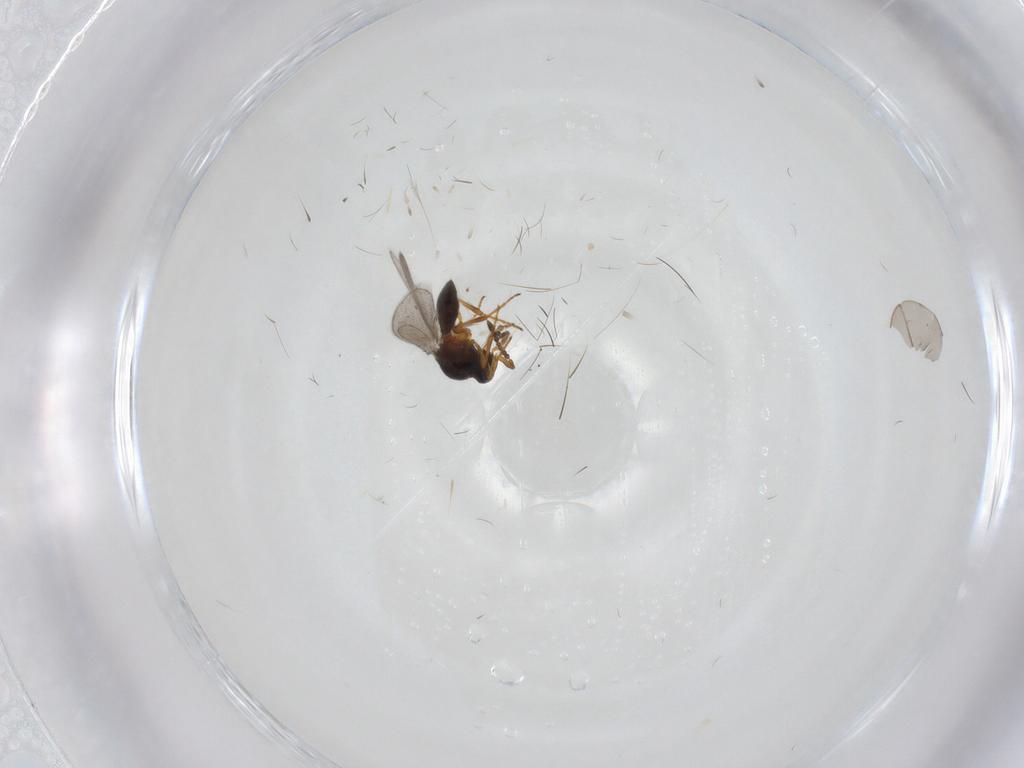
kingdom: Animalia
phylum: Arthropoda
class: Insecta
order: Hymenoptera
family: Platygastridae
